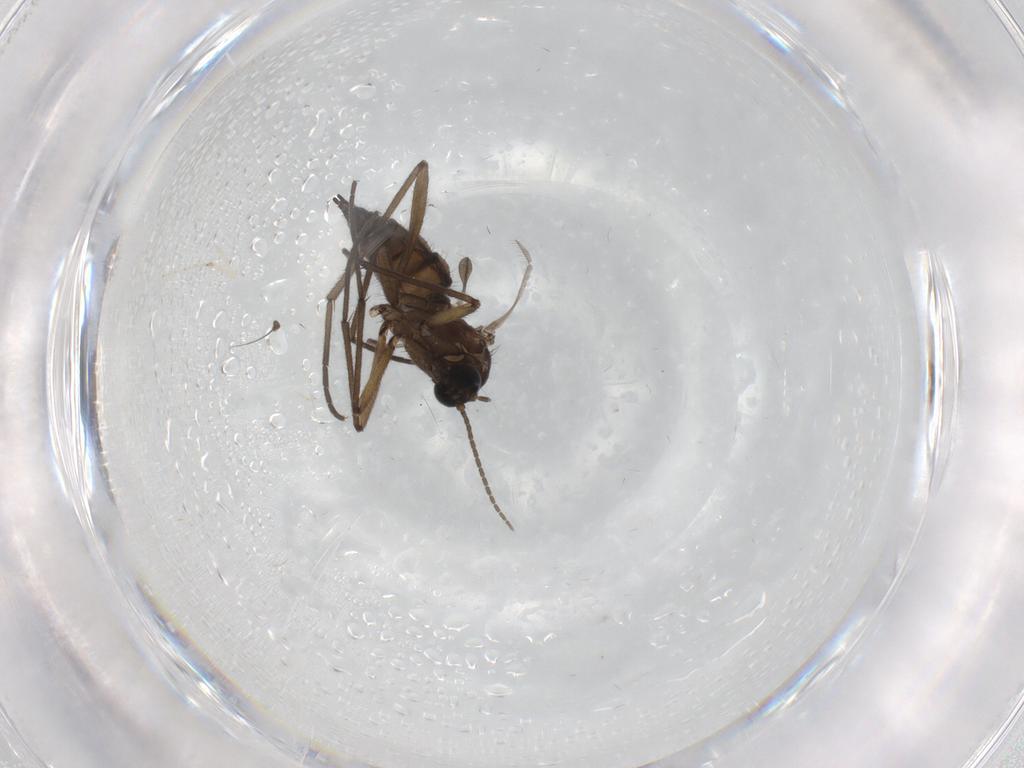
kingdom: Animalia
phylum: Arthropoda
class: Insecta
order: Diptera
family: Ceratopogonidae
